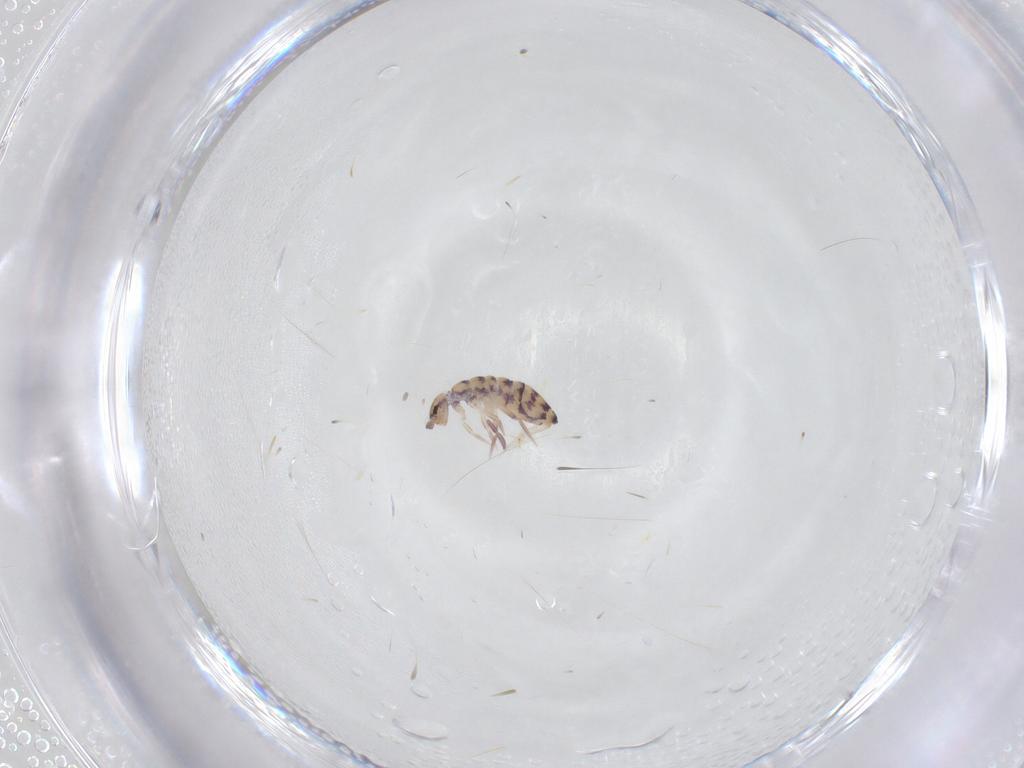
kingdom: Animalia
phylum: Arthropoda
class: Collembola
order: Entomobryomorpha
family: Entomobryidae
